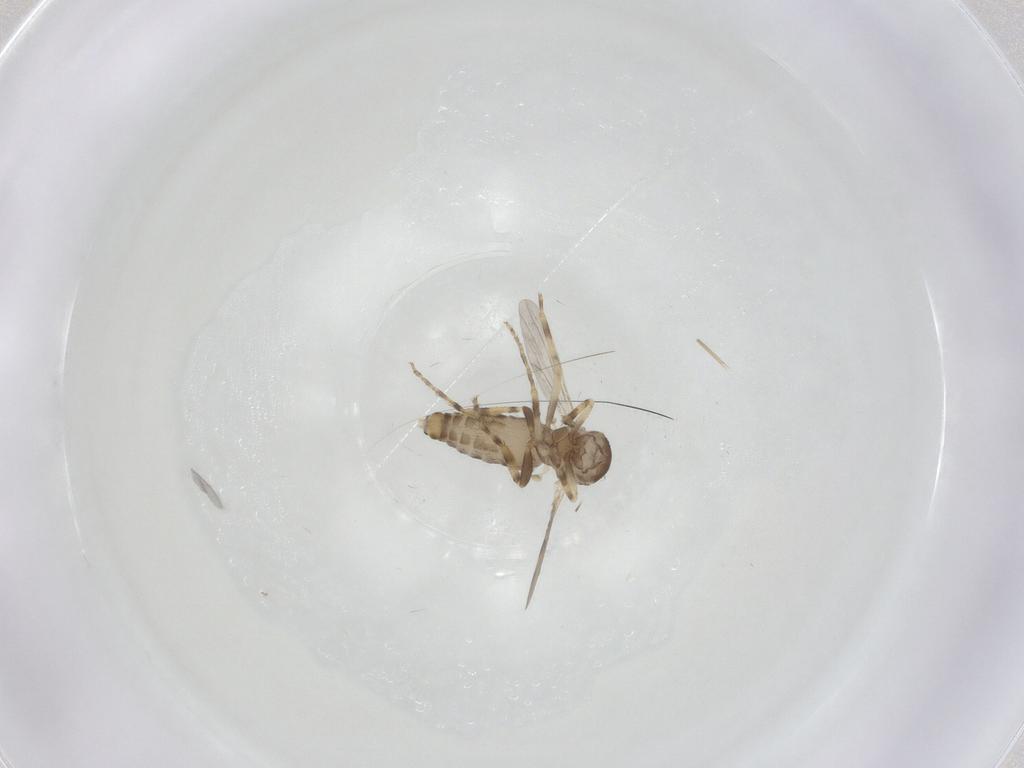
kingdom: Animalia
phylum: Arthropoda
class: Insecta
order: Diptera
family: Ceratopogonidae
